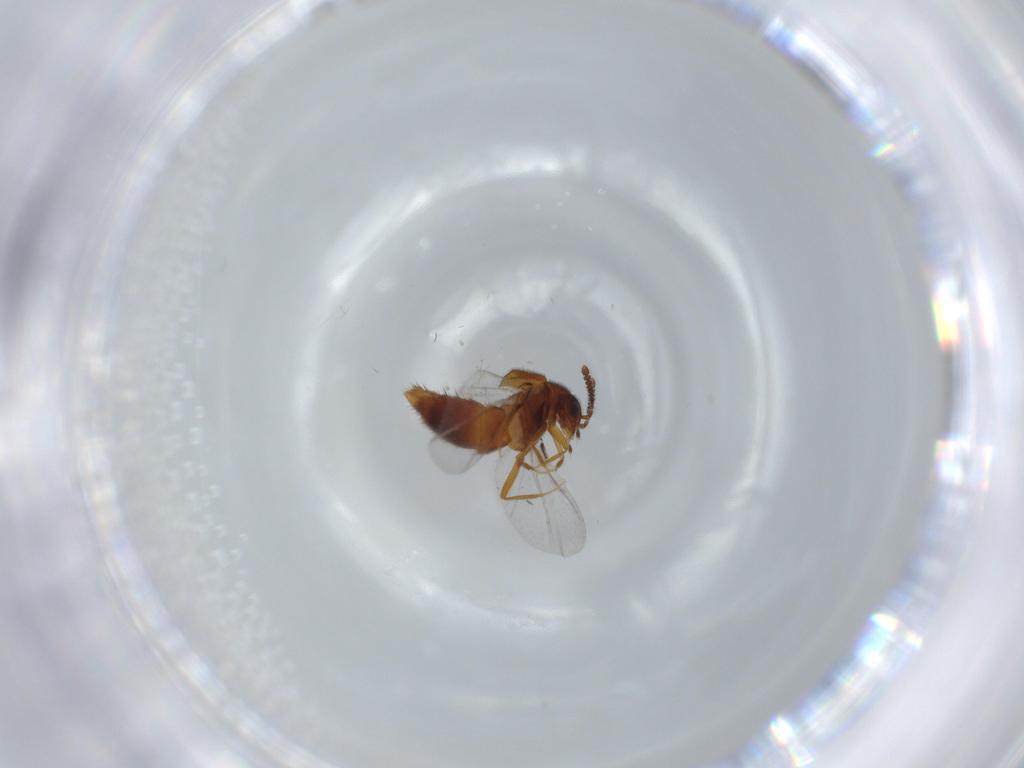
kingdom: Animalia
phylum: Arthropoda
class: Insecta
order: Coleoptera
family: Staphylinidae
